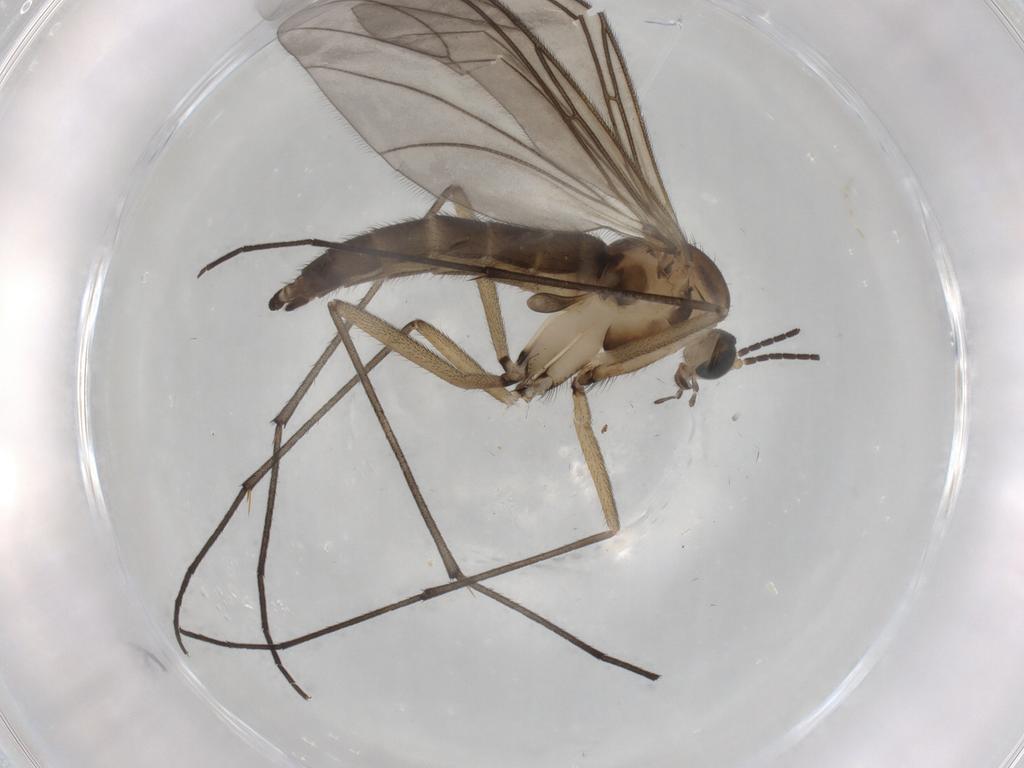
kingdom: Animalia
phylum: Arthropoda
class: Insecta
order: Diptera
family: Sciaridae
